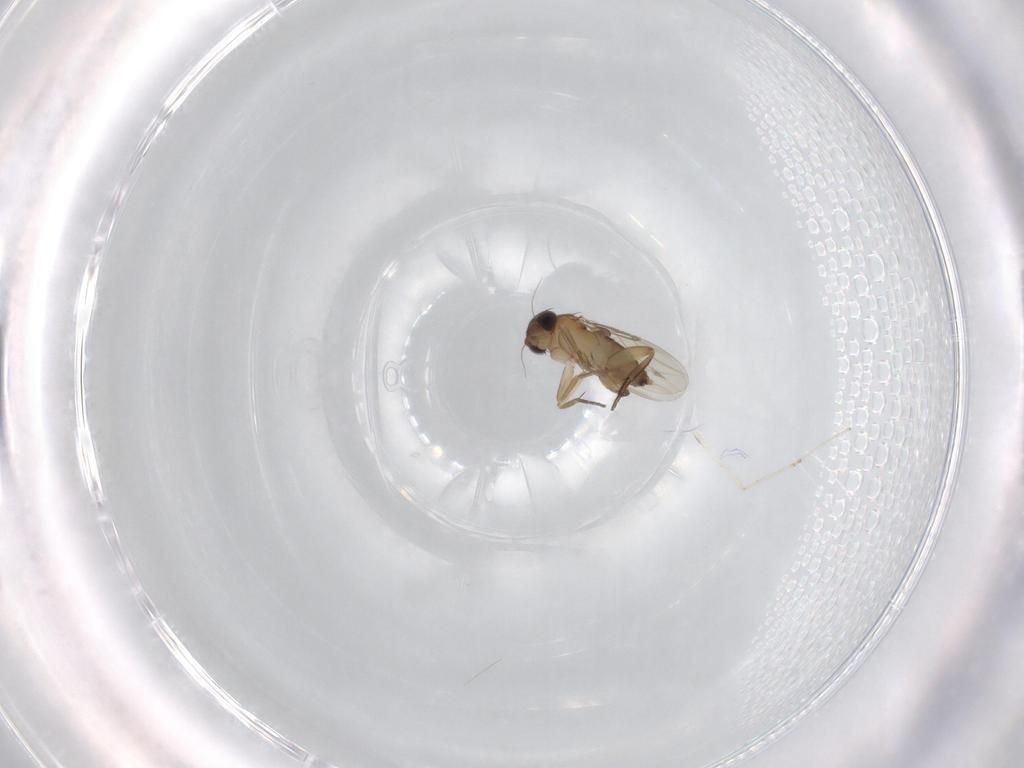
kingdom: Animalia
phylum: Arthropoda
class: Insecta
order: Diptera
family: Cecidomyiidae
